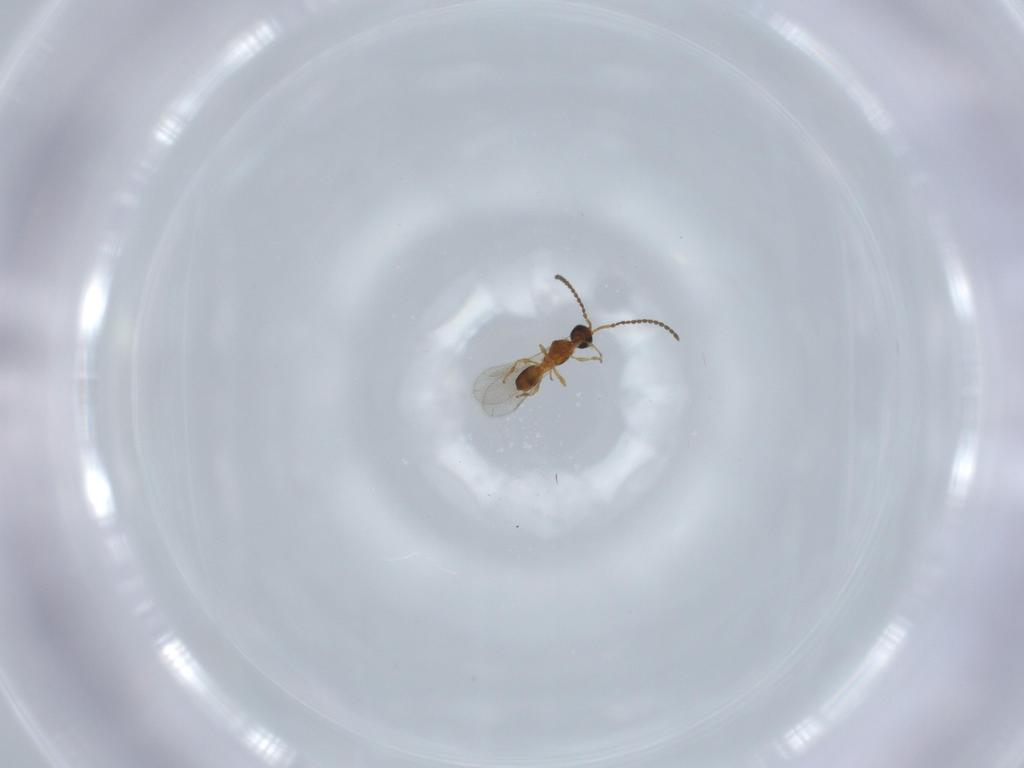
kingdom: Animalia
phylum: Arthropoda
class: Insecta
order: Hymenoptera
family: Diapriidae
